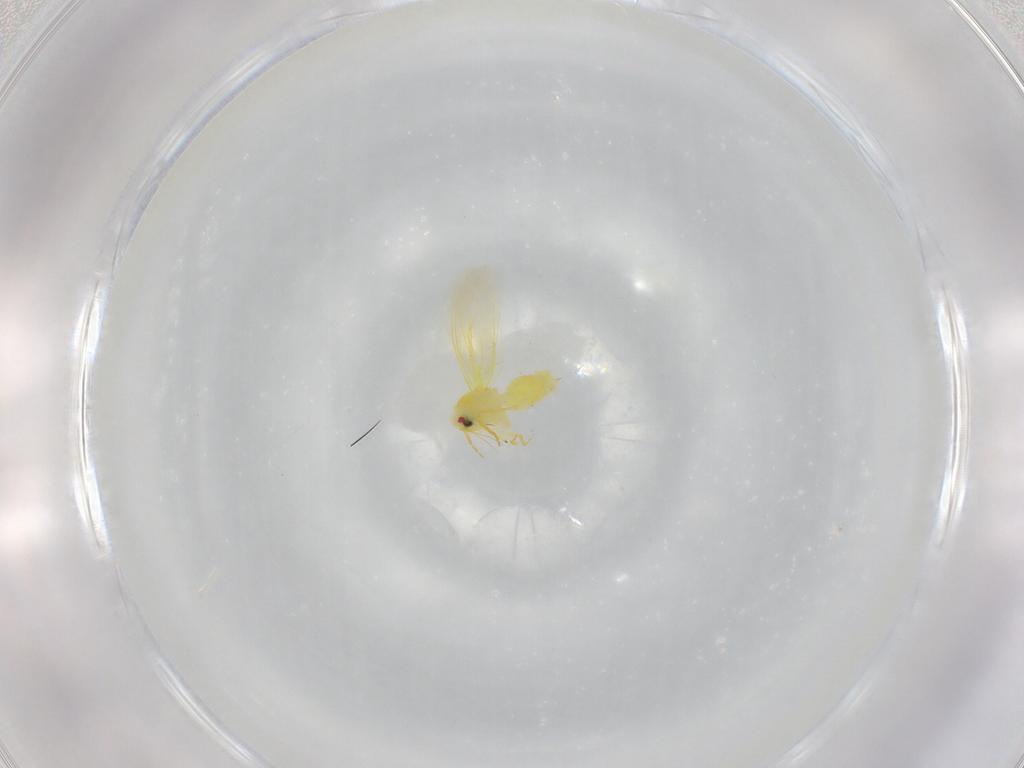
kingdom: Animalia
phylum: Arthropoda
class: Insecta
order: Hemiptera
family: Aleyrodidae
